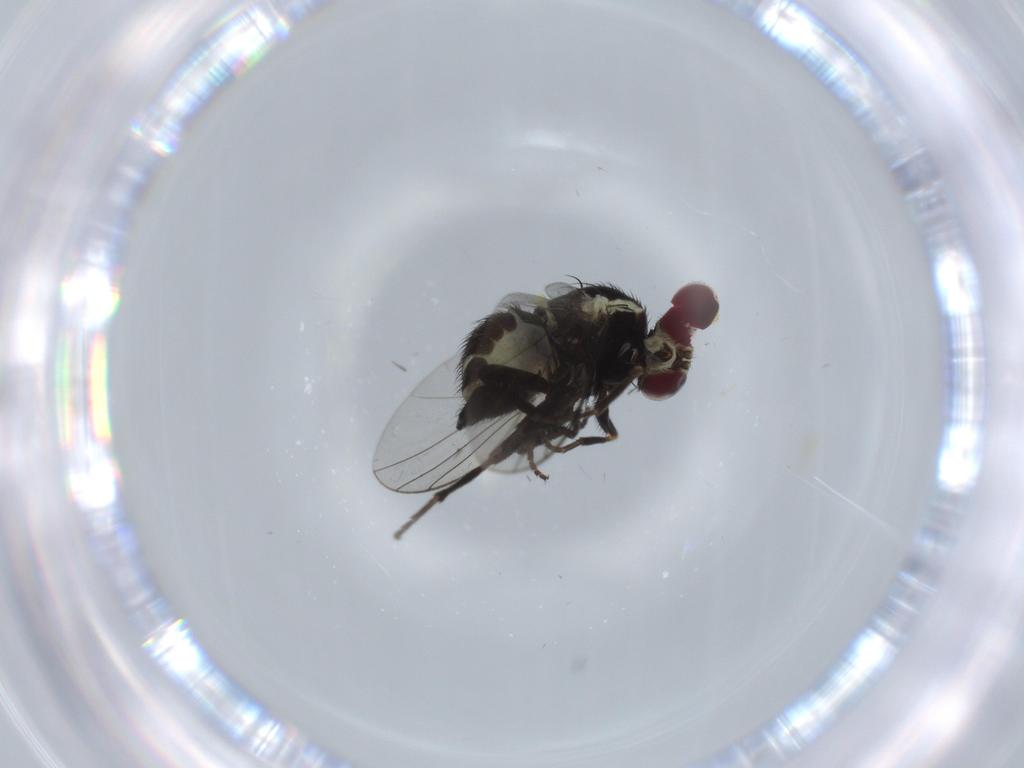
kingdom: Animalia
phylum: Arthropoda
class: Insecta
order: Diptera
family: Agromyzidae
